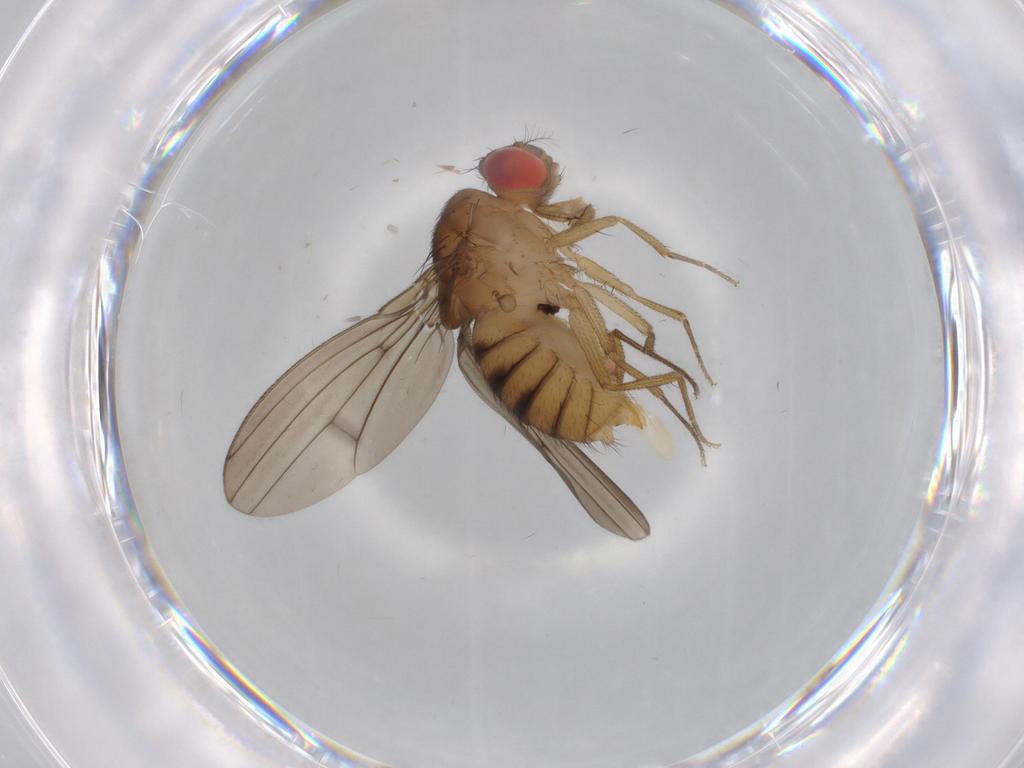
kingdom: Animalia
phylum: Arthropoda
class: Insecta
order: Diptera
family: Drosophilidae
